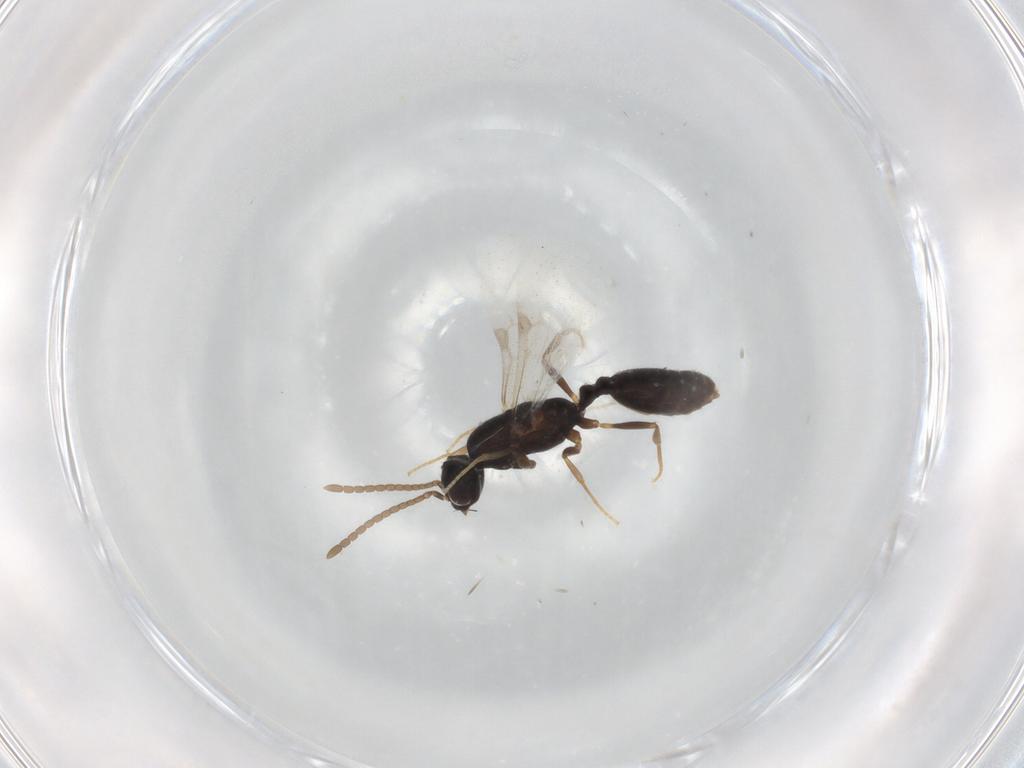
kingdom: Animalia
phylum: Arthropoda
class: Insecta
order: Hymenoptera
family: Formicidae
